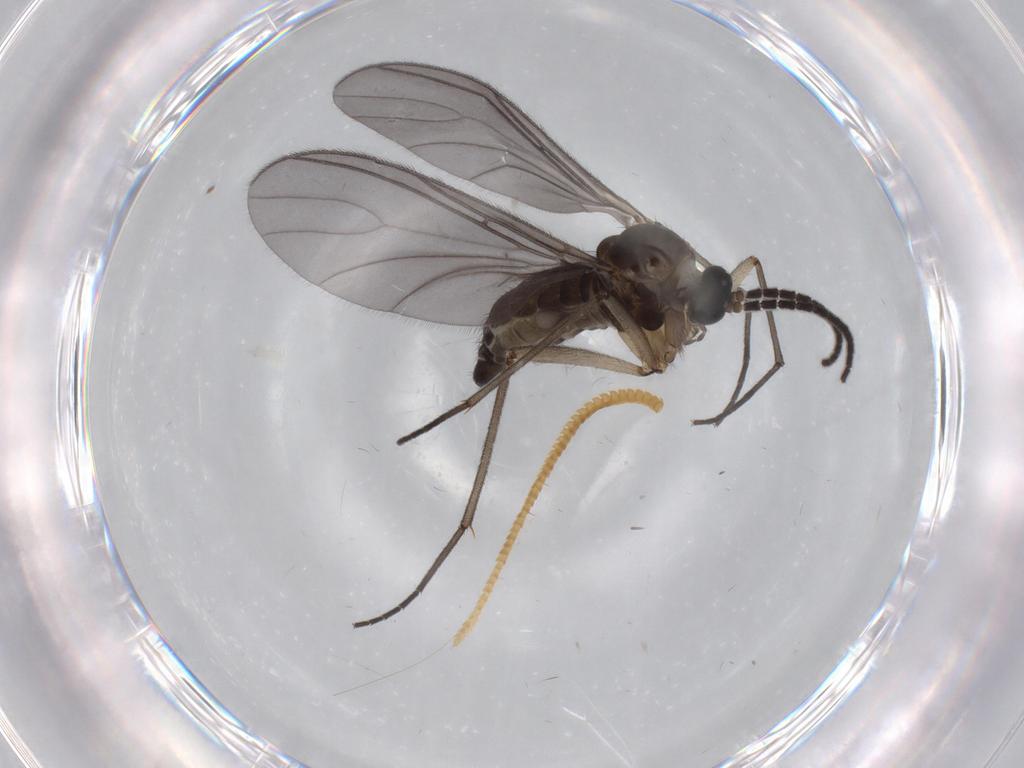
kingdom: Animalia
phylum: Arthropoda
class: Insecta
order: Diptera
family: Sciaridae
